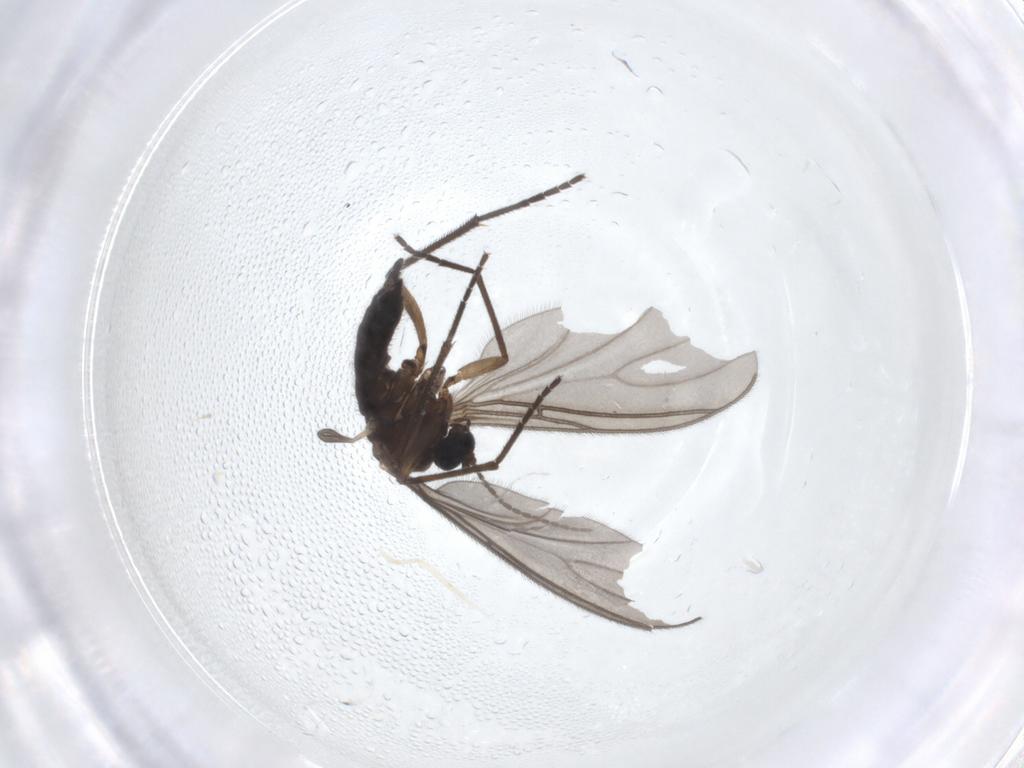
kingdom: Animalia
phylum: Arthropoda
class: Insecta
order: Diptera
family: Sciaridae
